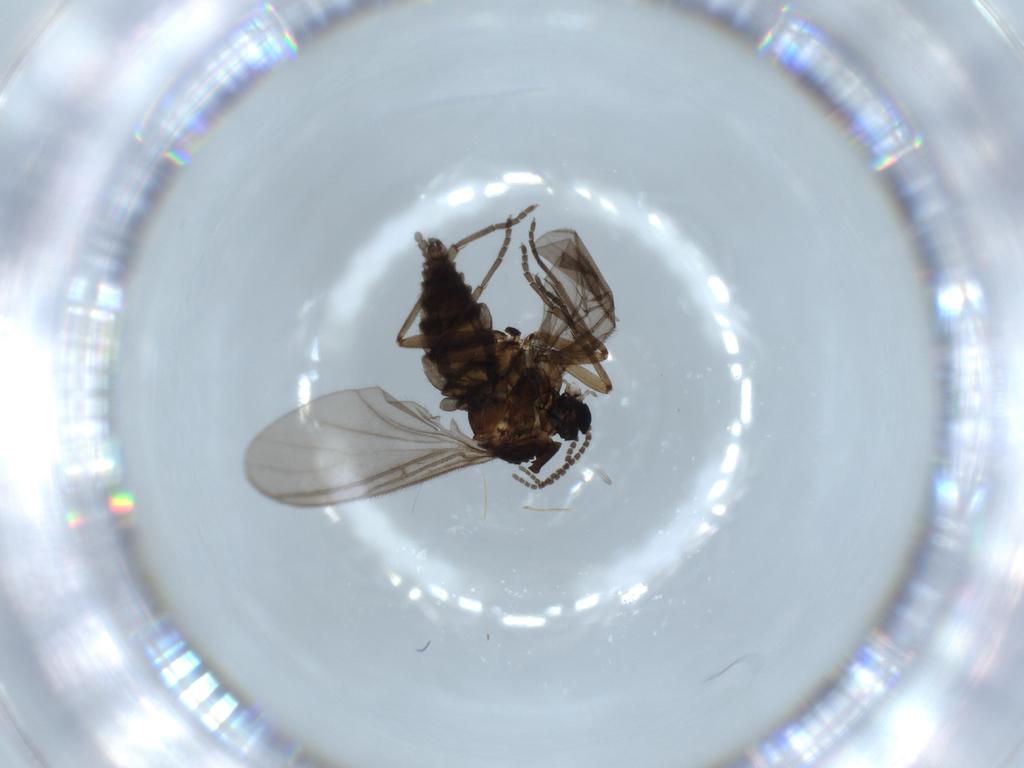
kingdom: Animalia
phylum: Arthropoda
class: Insecta
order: Diptera
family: Sciaridae
